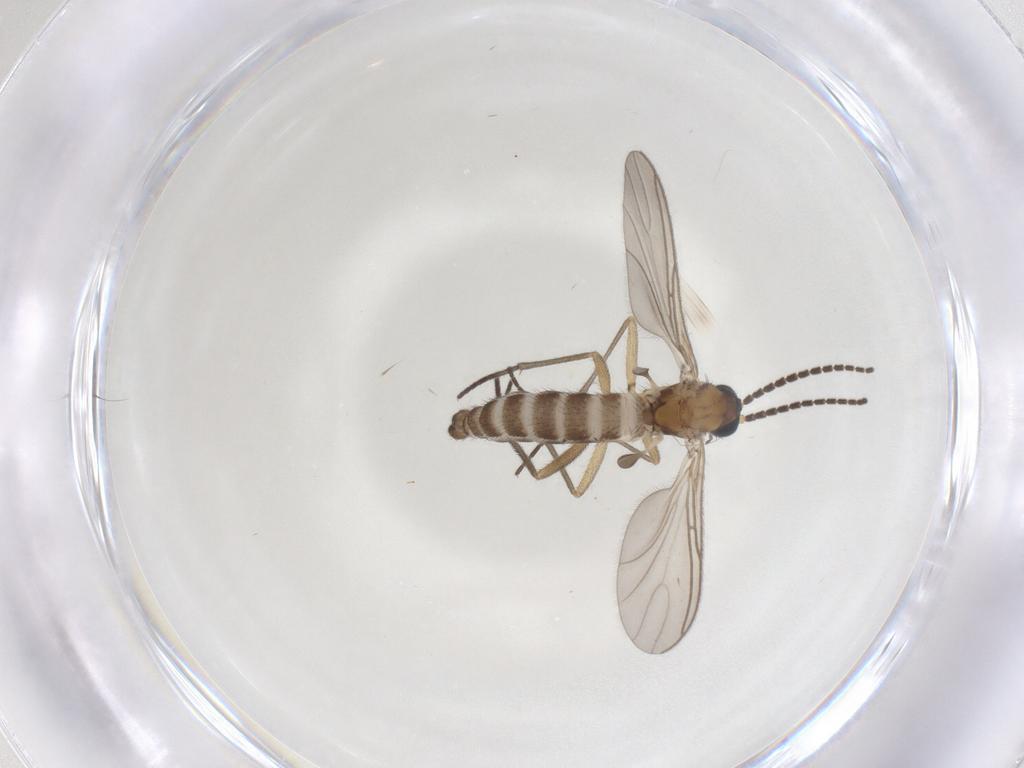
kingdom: Animalia
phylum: Arthropoda
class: Insecta
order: Diptera
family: Sciaridae
